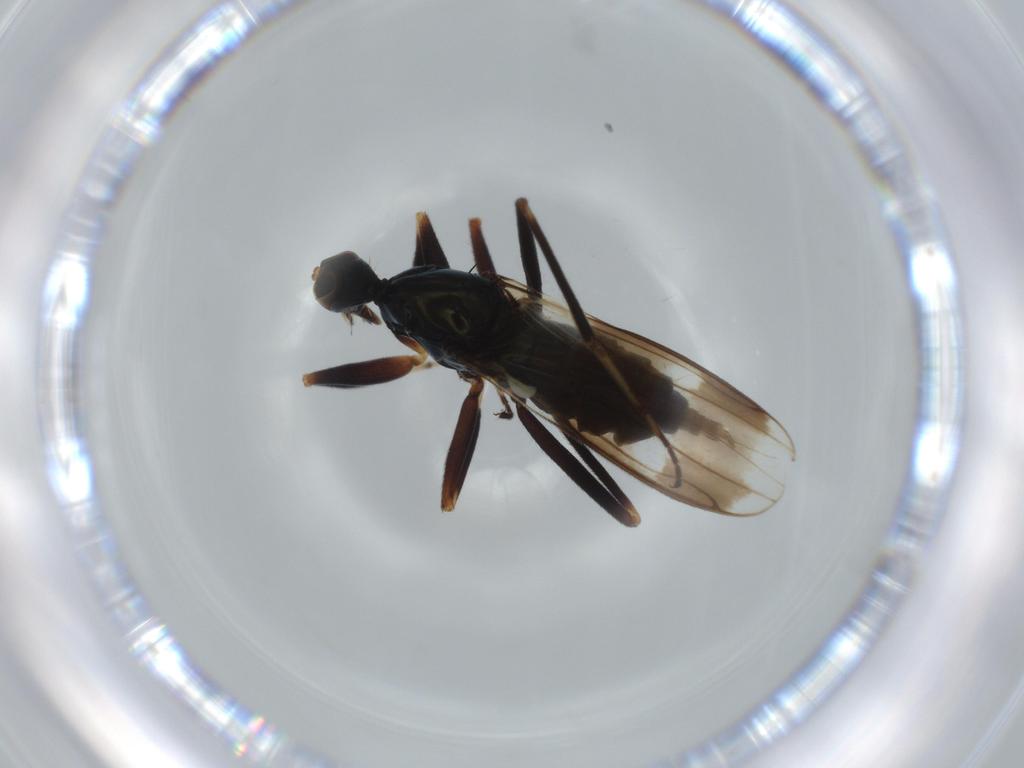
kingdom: Animalia
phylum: Arthropoda
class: Insecta
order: Diptera
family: Hybotidae
